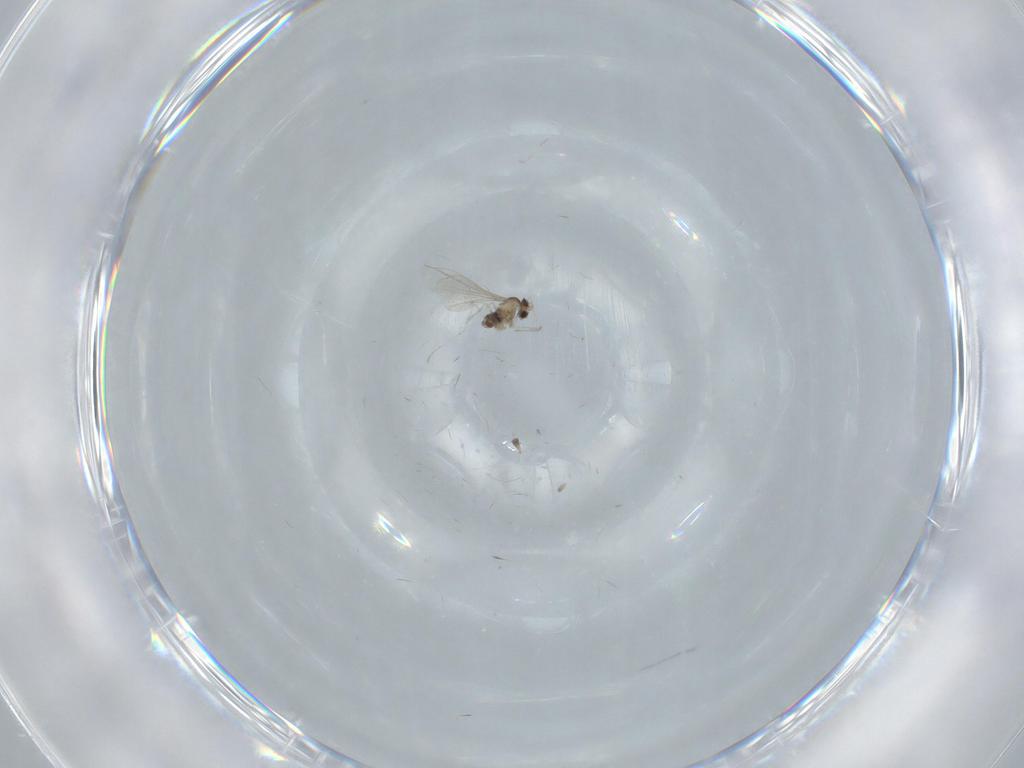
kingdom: Animalia
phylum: Arthropoda
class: Insecta
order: Diptera
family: Cecidomyiidae
